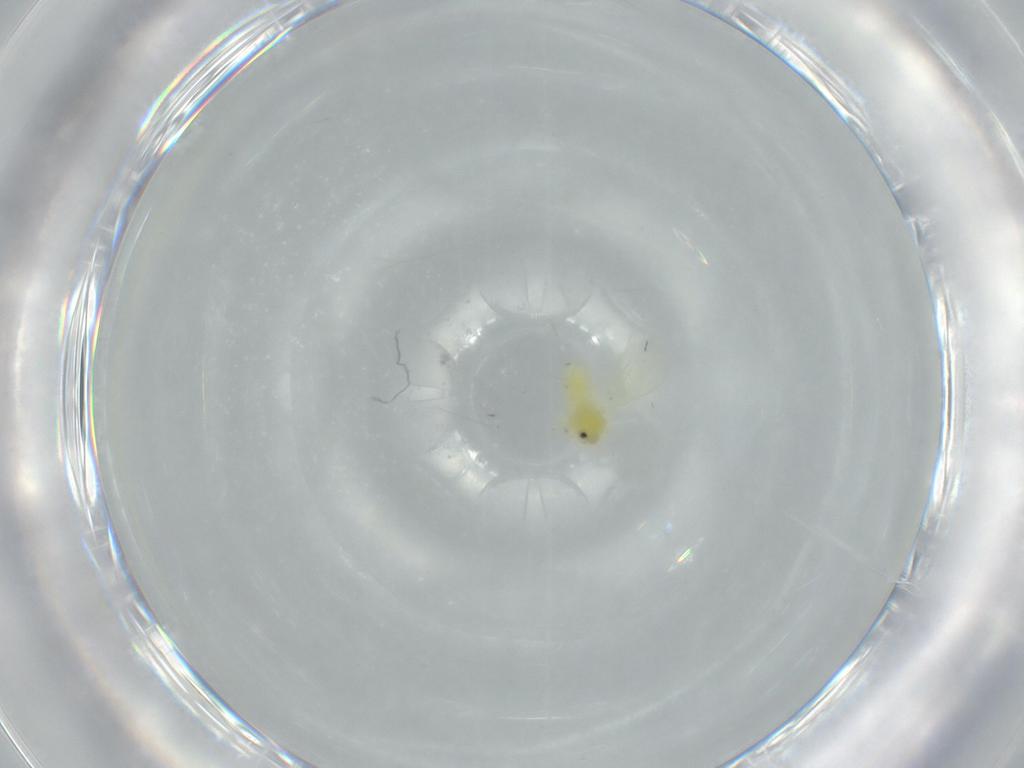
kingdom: Animalia
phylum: Arthropoda
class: Insecta
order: Hemiptera
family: Aleyrodidae
